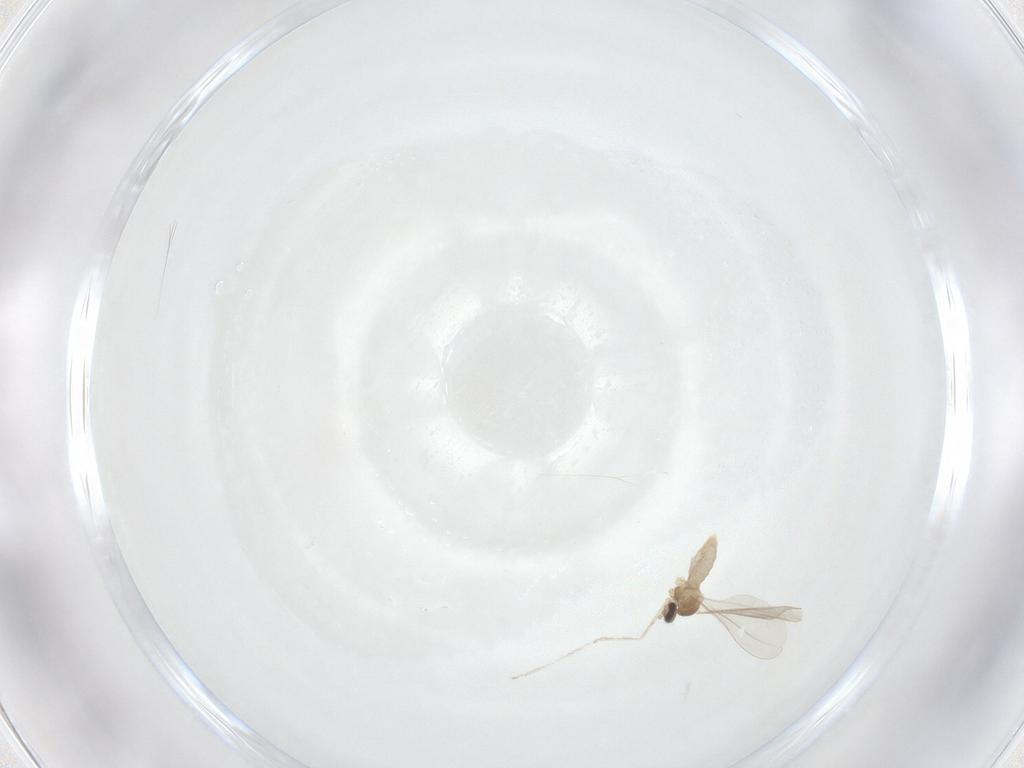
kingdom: Animalia
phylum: Arthropoda
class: Insecta
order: Diptera
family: Cecidomyiidae
